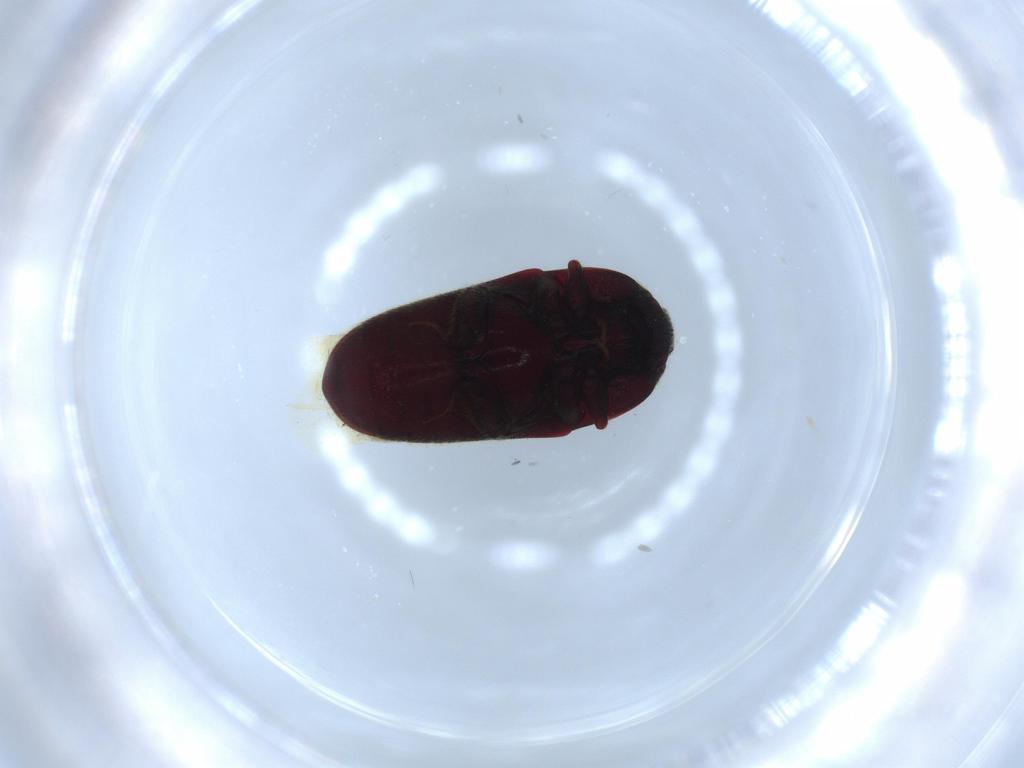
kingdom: Animalia
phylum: Arthropoda
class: Insecta
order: Coleoptera
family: Throscidae
